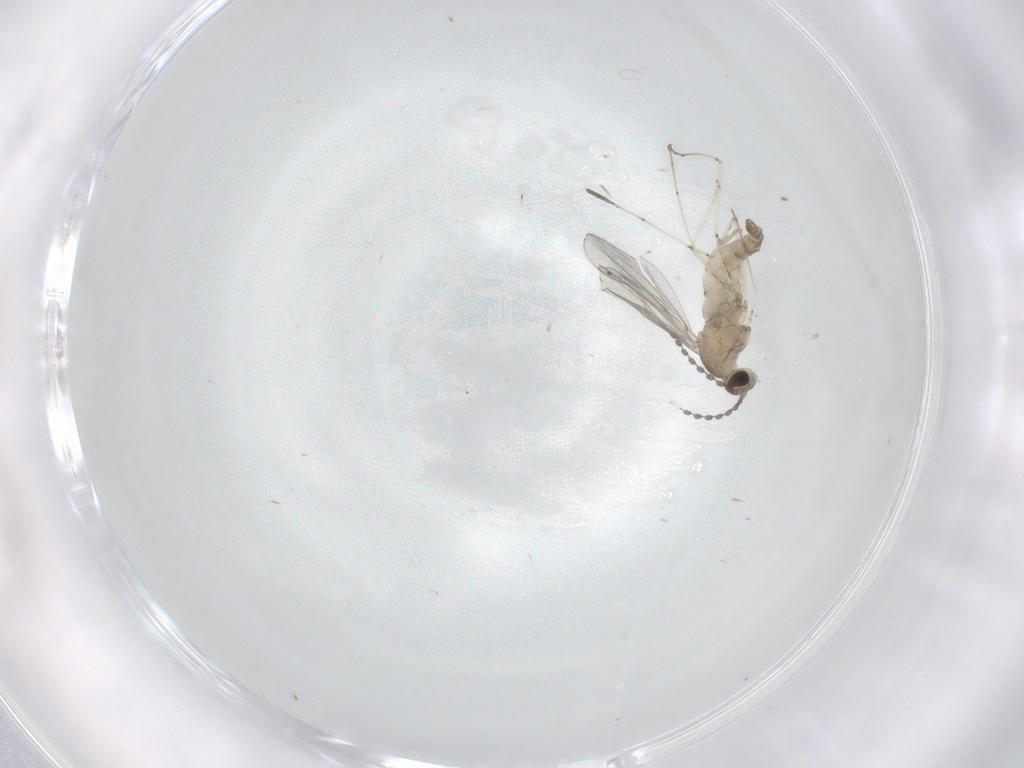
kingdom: Animalia
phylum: Arthropoda
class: Insecta
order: Diptera
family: Cecidomyiidae
